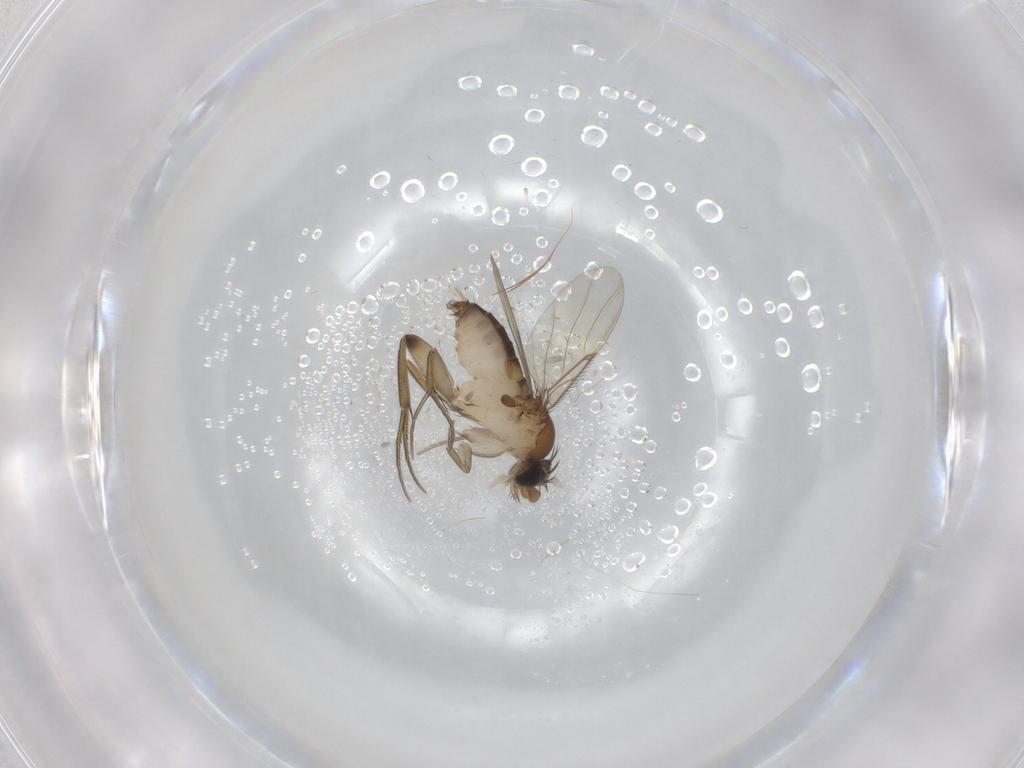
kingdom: Animalia
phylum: Arthropoda
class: Insecta
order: Diptera
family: Phoridae
